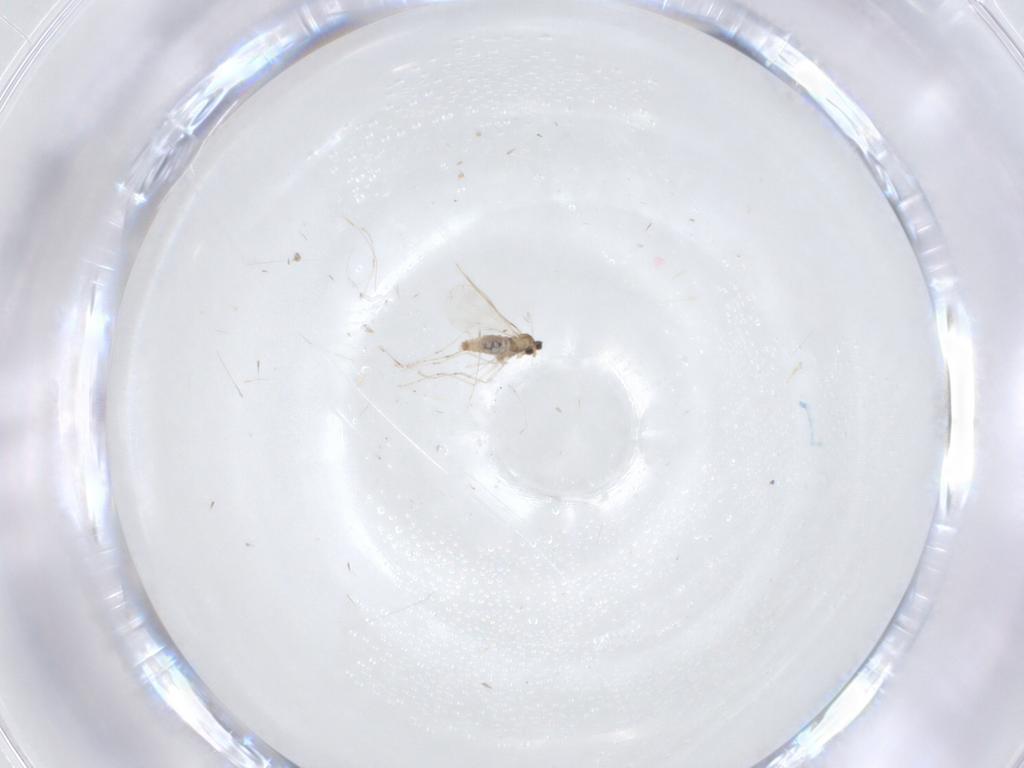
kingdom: Animalia
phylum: Arthropoda
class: Insecta
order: Diptera
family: Cecidomyiidae
